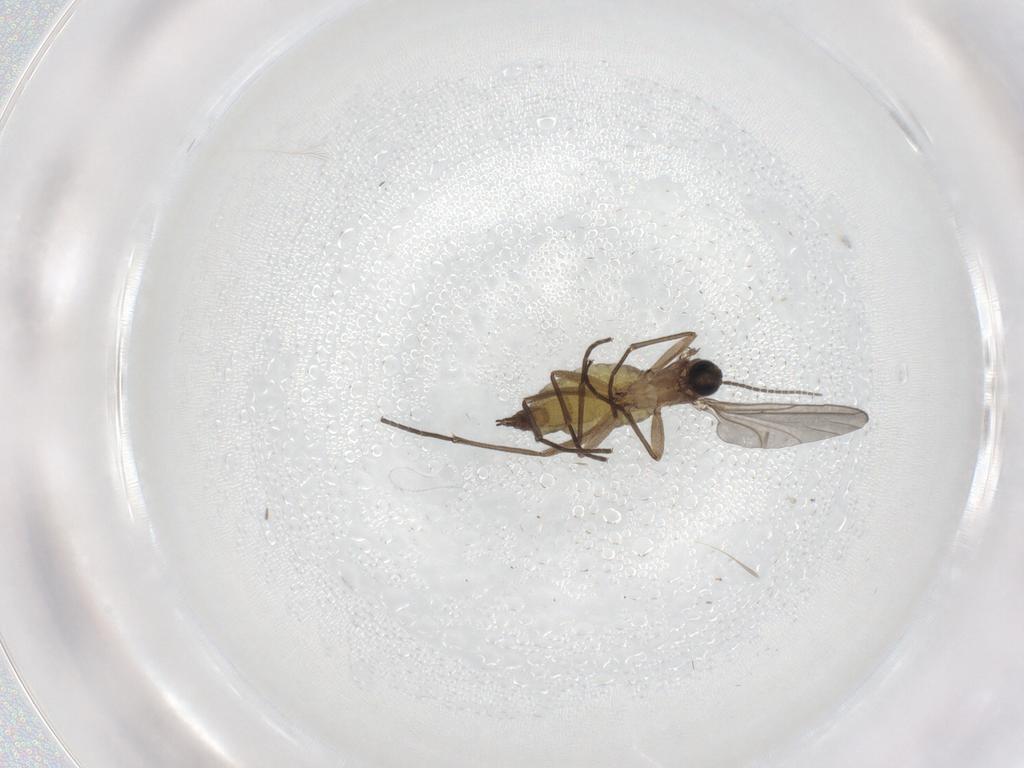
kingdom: Animalia
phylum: Arthropoda
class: Insecta
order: Diptera
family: Sciaridae
